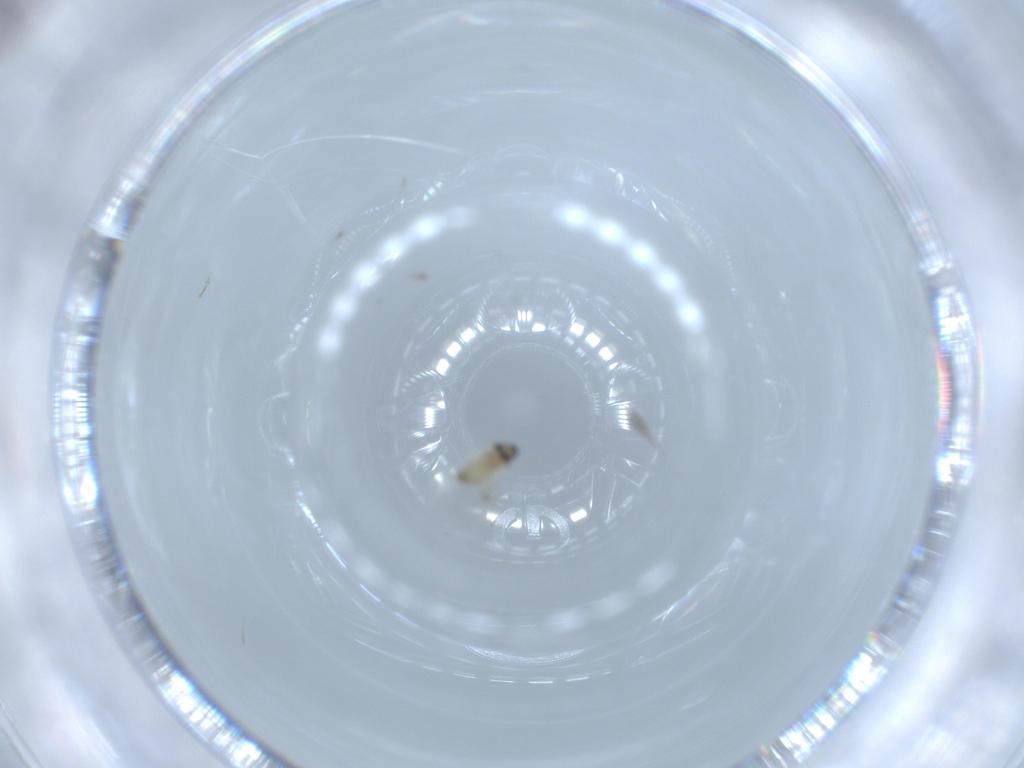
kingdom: Animalia
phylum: Arthropoda
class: Insecta
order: Diptera
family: Cecidomyiidae
